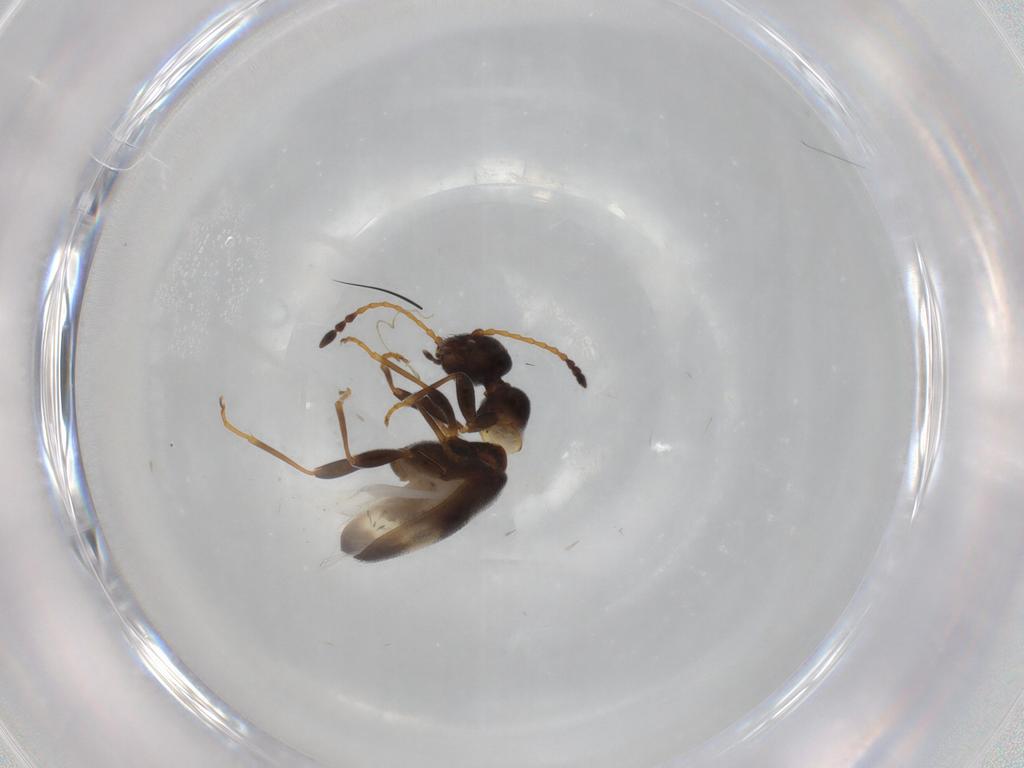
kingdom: Animalia
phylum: Arthropoda
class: Insecta
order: Coleoptera
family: Anthicidae
